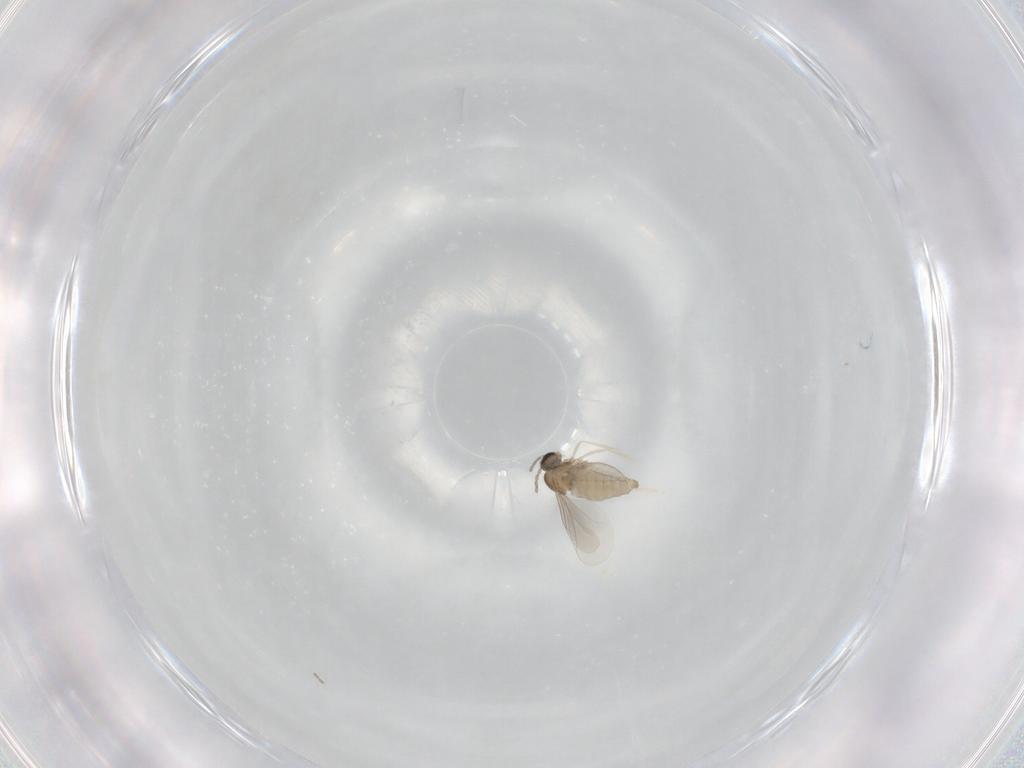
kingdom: Animalia
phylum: Arthropoda
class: Insecta
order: Diptera
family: Cecidomyiidae
